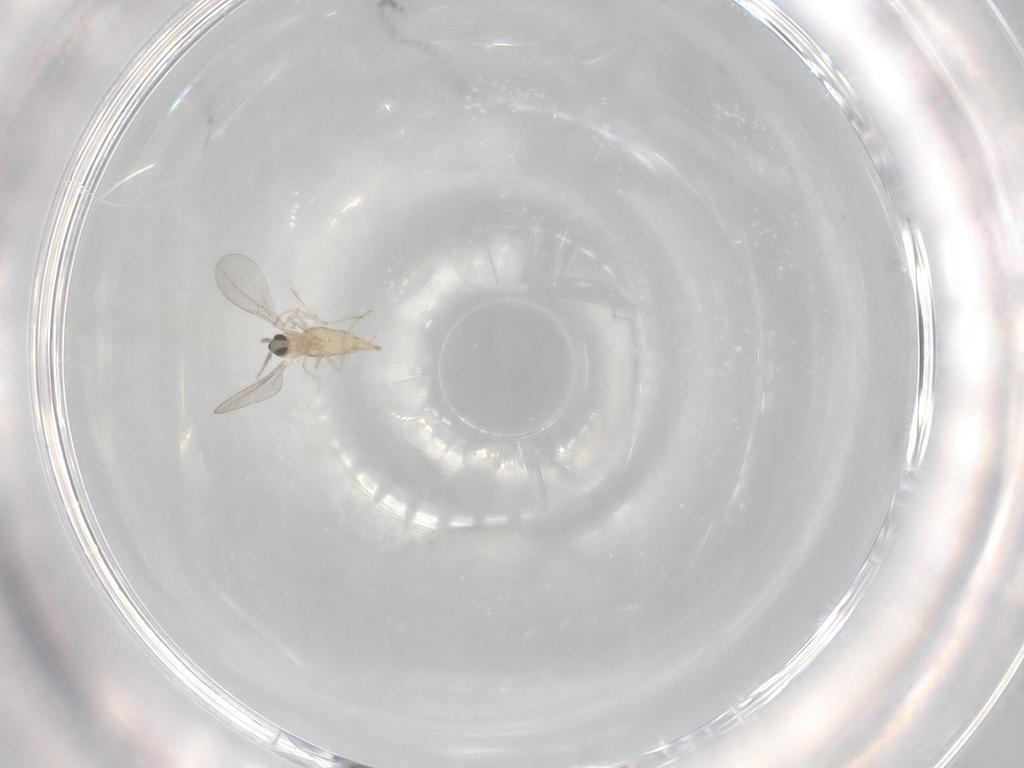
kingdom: Animalia
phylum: Arthropoda
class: Insecta
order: Diptera
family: Cecidomyiidae
